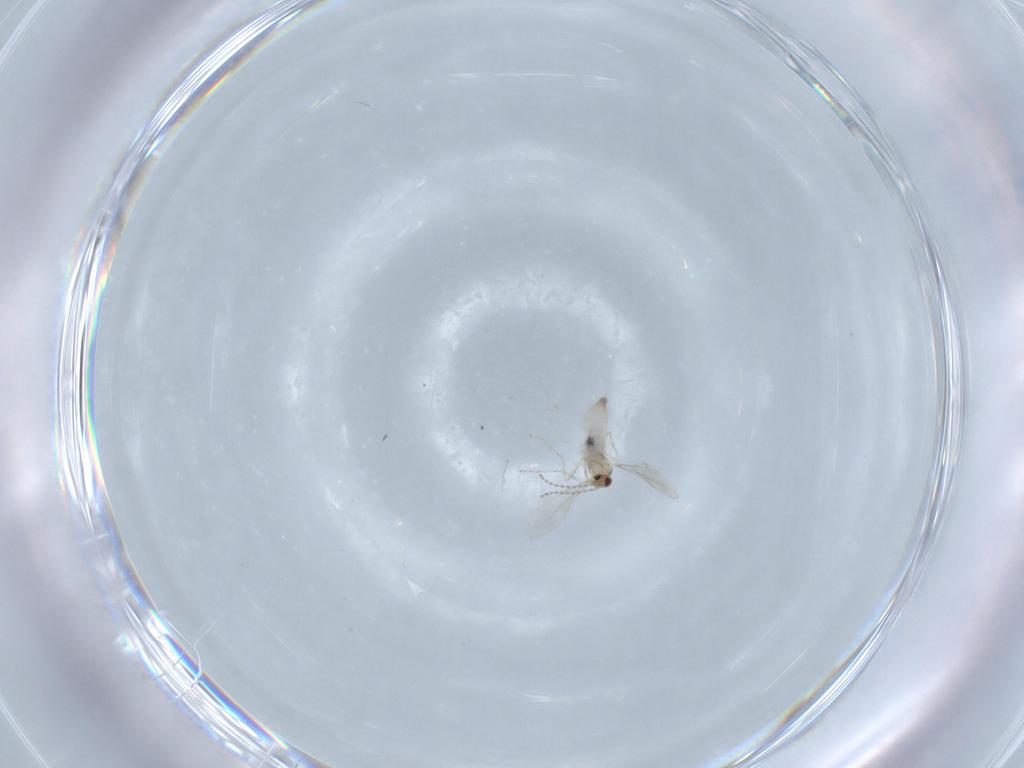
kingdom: Animalia
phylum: Arthropoda
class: Insecta
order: Diptera
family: Cecidomyiidae
